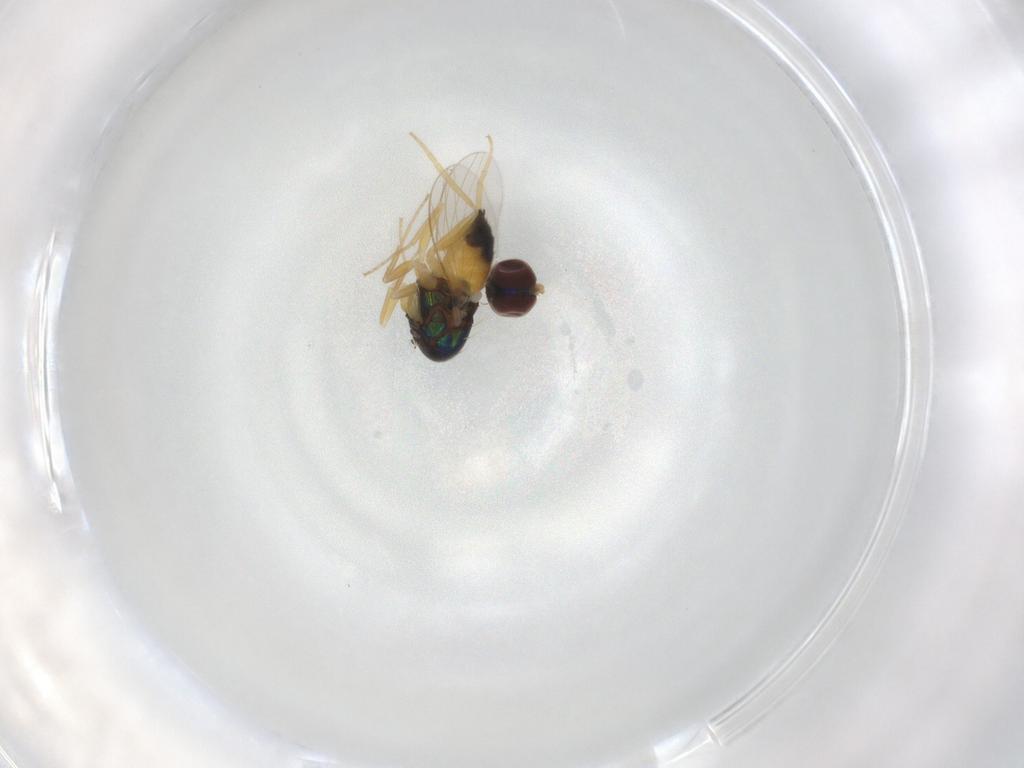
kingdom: Animalia
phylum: Arthropoda
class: Insecta
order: Diptera
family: Dolichopodidae
